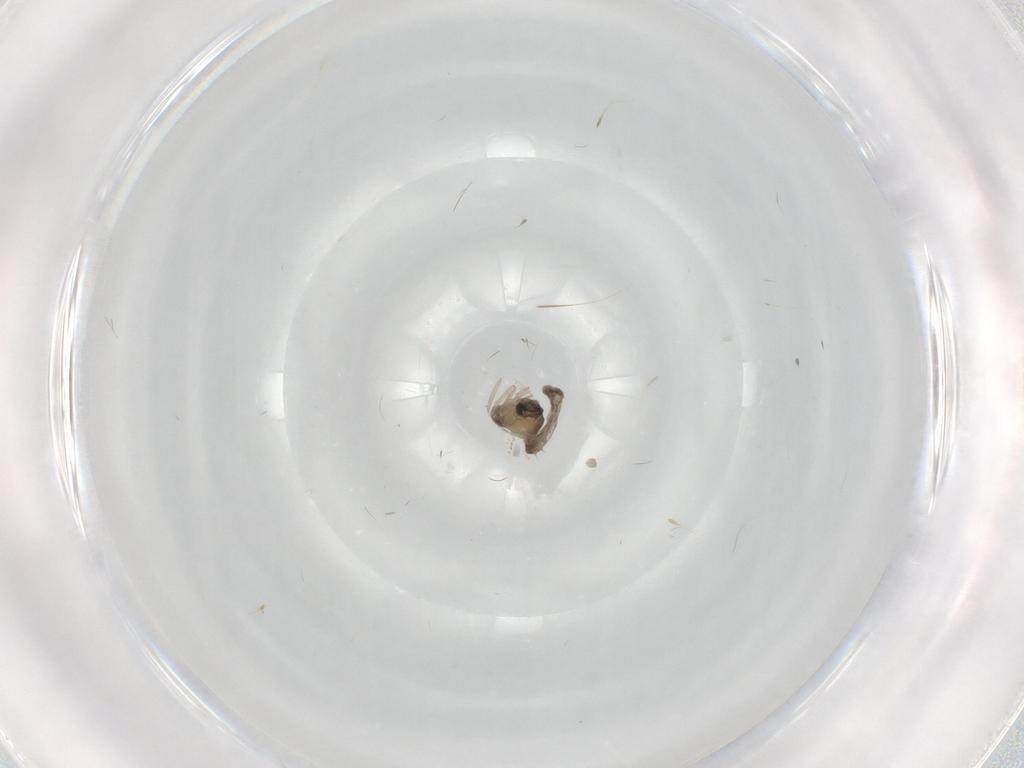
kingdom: Animalia
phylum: Arthropoda
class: Insecta
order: Diptera
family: Cecidomyiidae
